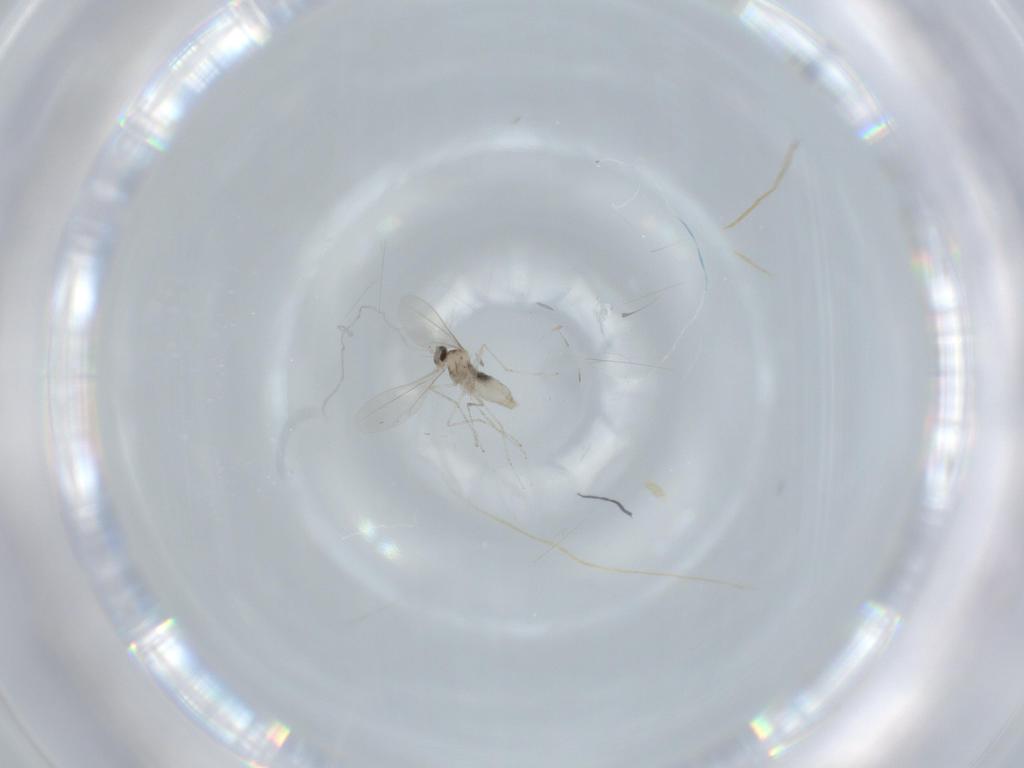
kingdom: Animalia
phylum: Arthropoda
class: Insecta
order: Diptera
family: Cecidomyiidae
